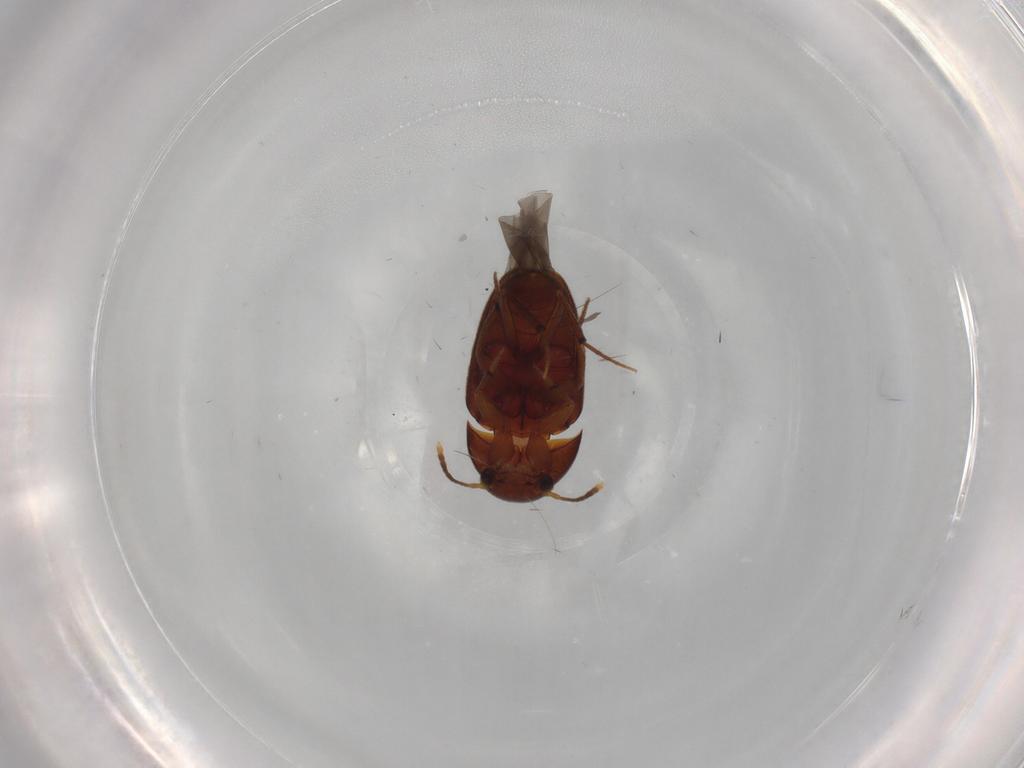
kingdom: Animalia
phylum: Arthropoda
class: Insecta
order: Coleoptera
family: Leiodidae
